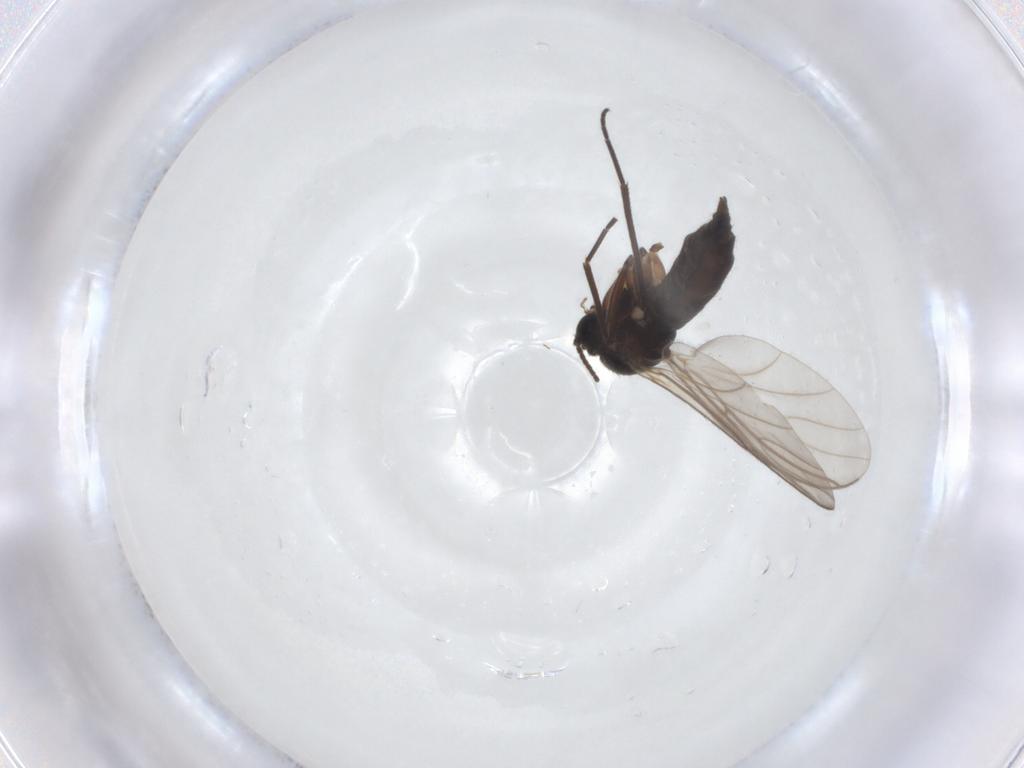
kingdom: Animalia
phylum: Arthropoda
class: Insecta
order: Diptera
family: Sciaridae
